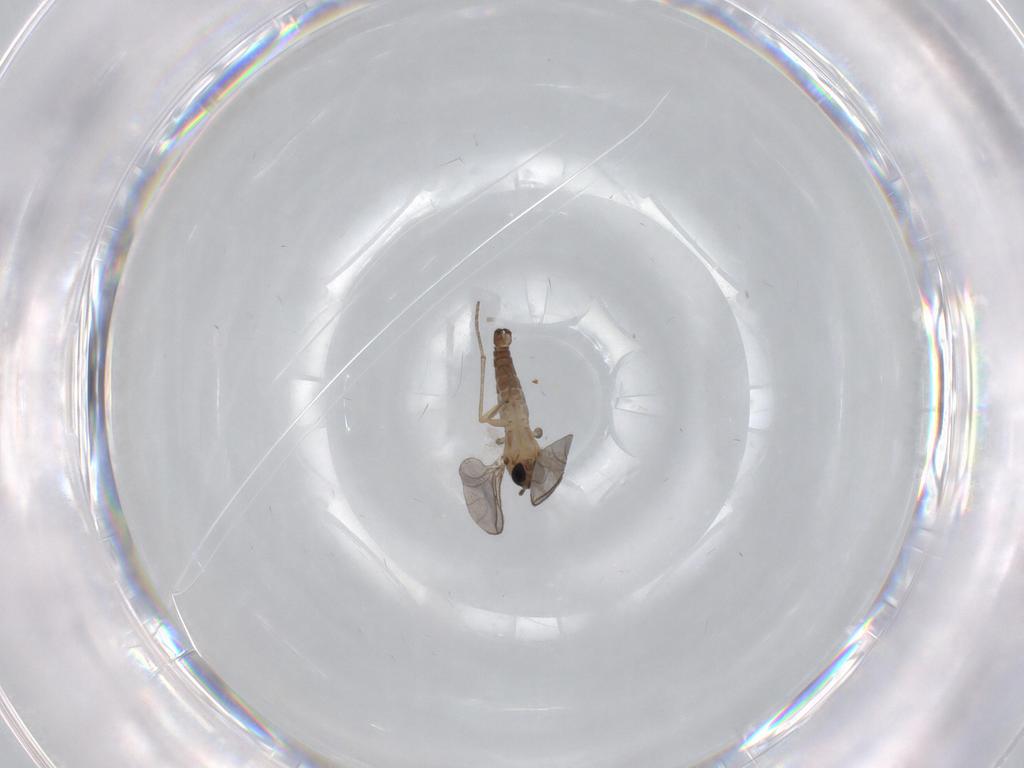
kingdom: Animalia
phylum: Arthropoda
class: Insecta
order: Diptera
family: Sciaridae
